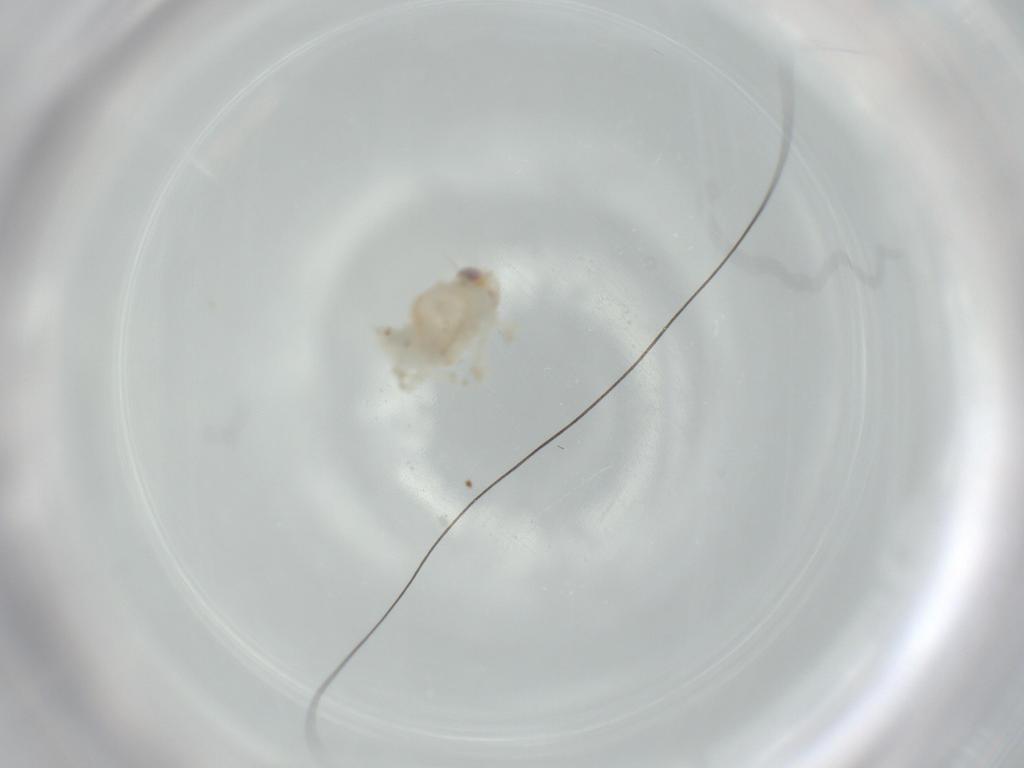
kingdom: Animalia
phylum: Arthropoda
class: Insecta
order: Hemiptera
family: Nogodinidae
